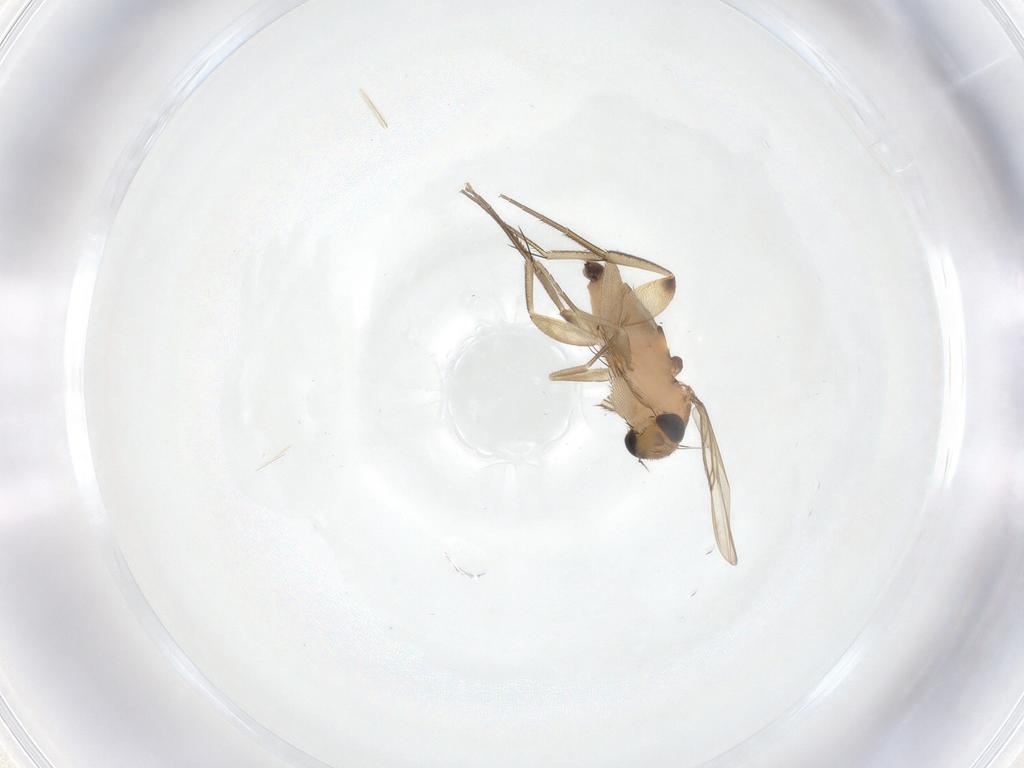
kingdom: Animalia
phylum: Arthropoda
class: Insecta
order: Diptera
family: Phoridae
